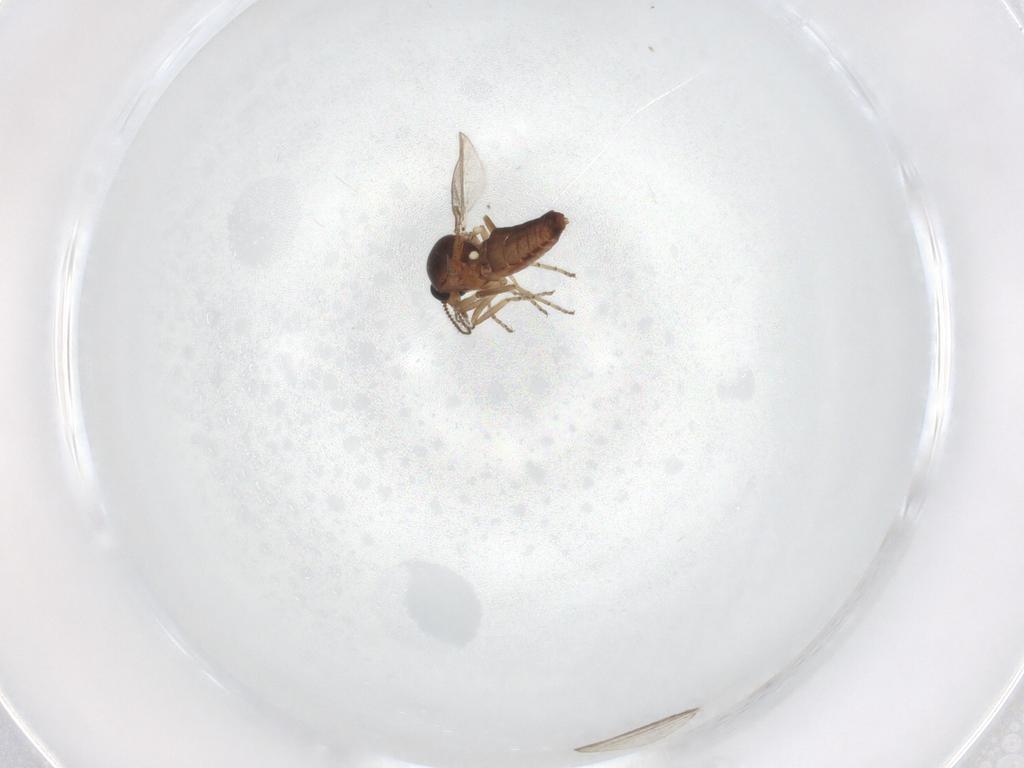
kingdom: Animalia
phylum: Arthropoda
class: Insecta
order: Diptera
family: Ceratopogonidae
